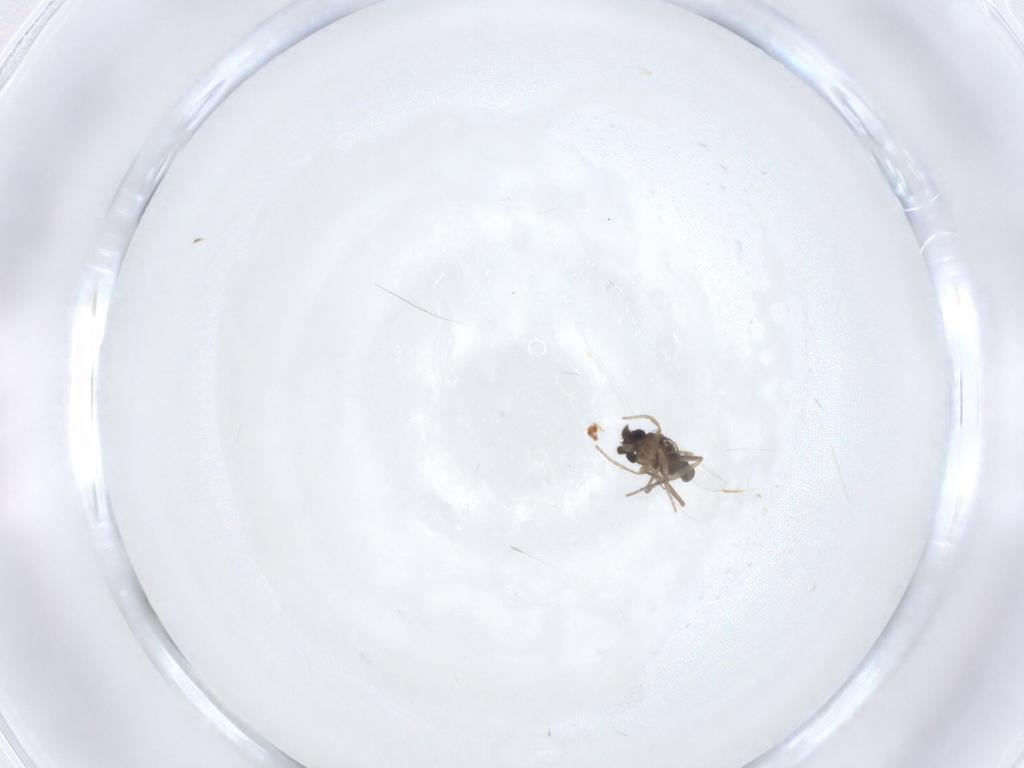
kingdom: Animalia
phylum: Arthropoda
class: Insecta
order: Diptera
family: Phoridae
